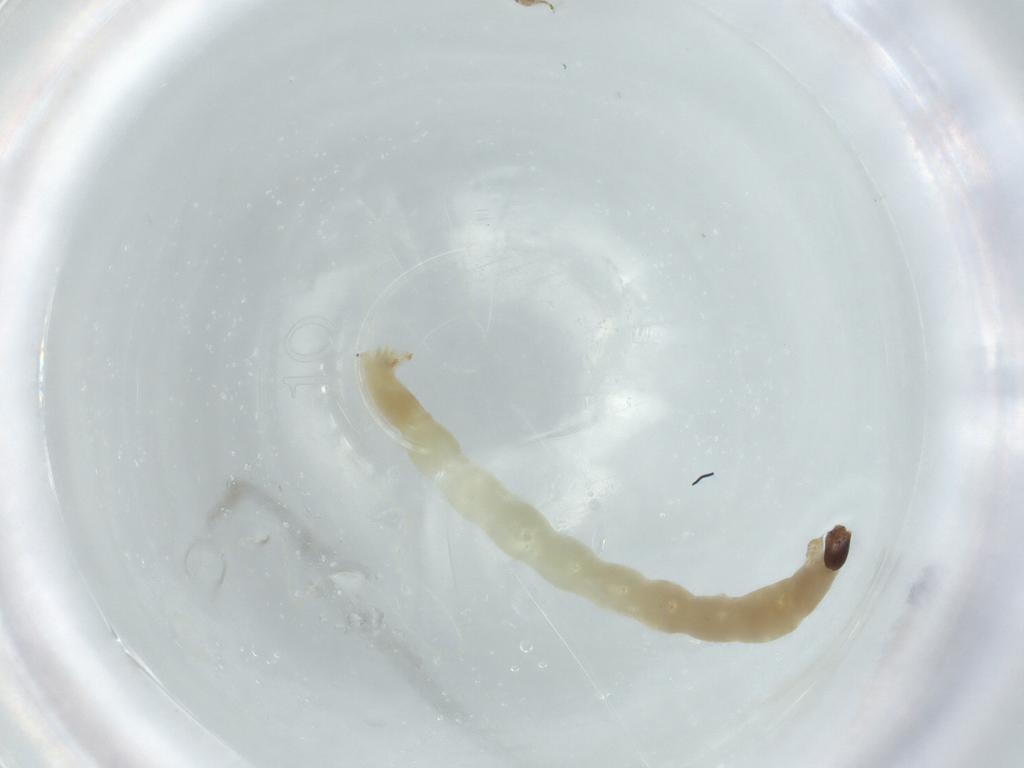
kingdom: Animalia
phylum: Arthropoda
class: Insecta
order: Diptera
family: Chironomidae
